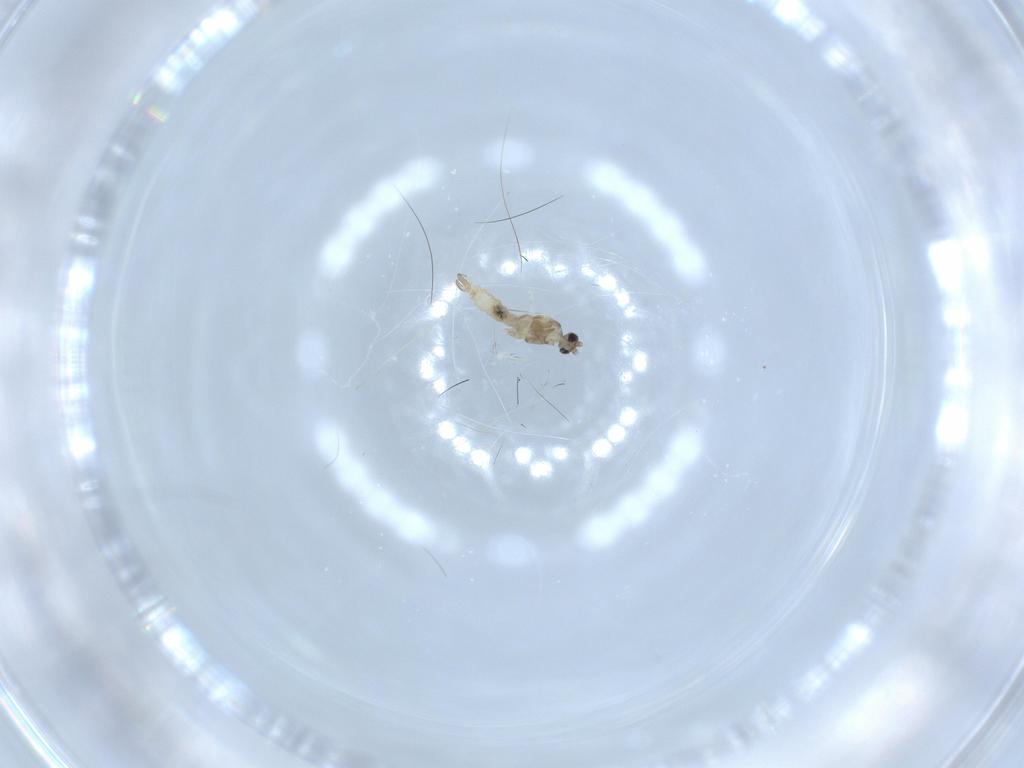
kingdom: Animalia
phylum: Arthropoda
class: Insecta
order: Diptera
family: Cecidomyiidae
